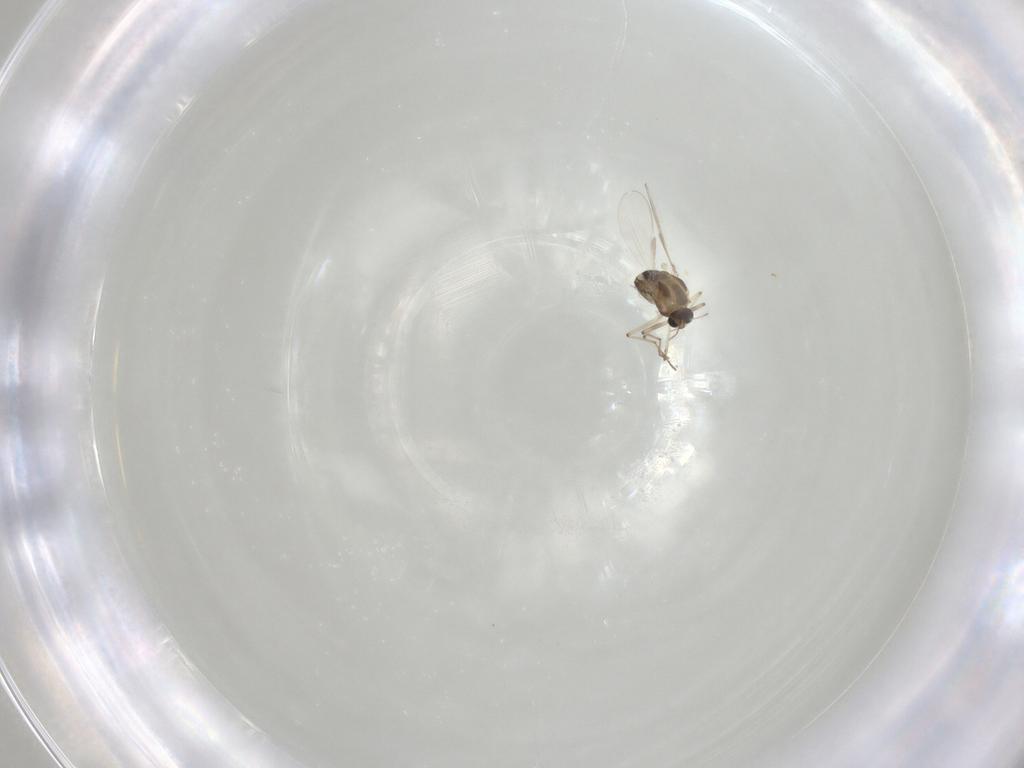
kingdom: Animalia
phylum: Arthropoda
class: Insecta
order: Diptera
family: Chironomidae
